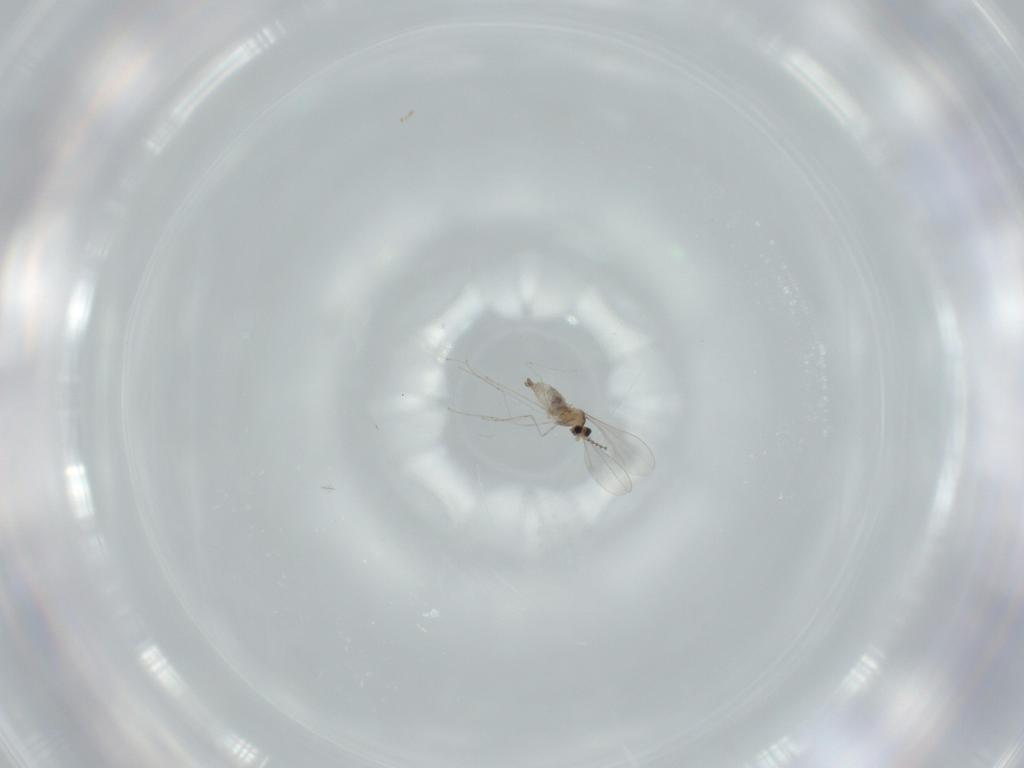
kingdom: Animalia
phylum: Arthropoda
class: Insecta
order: Diptera
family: Cecidomyiidae
